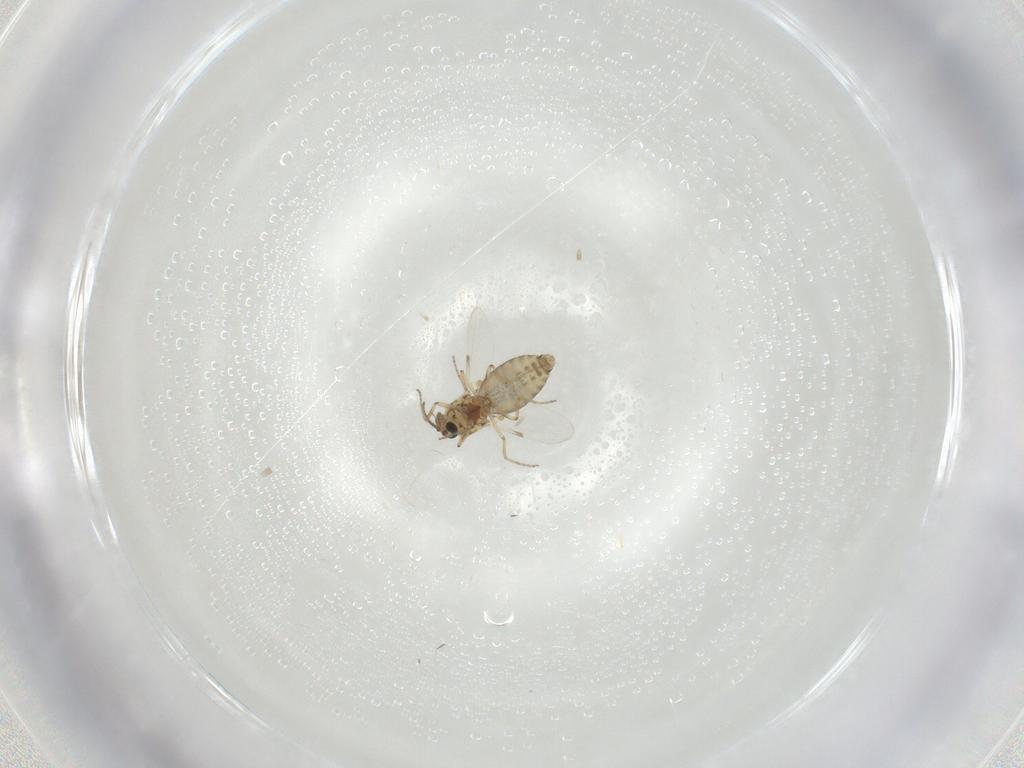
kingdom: Animalia
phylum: Arthropoda
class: Insecta
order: Diptera
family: Ceratopogonidae
